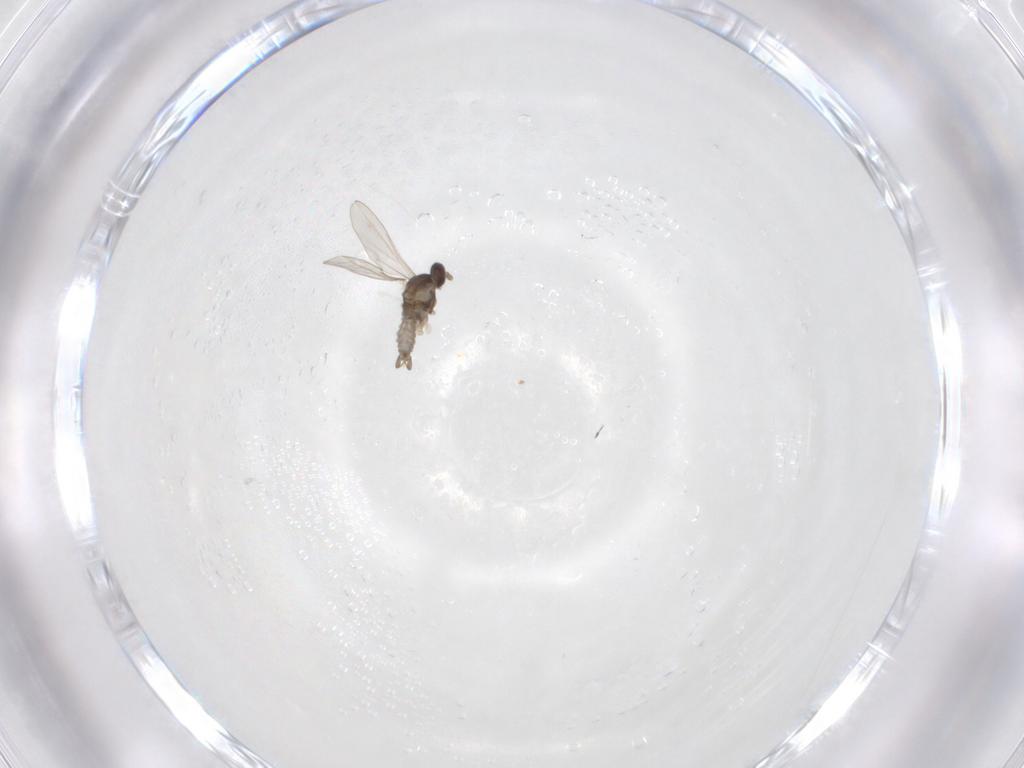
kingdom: Animalia
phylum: Arthropoda
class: Insecta
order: Diptera
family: Cecidomyiidae
